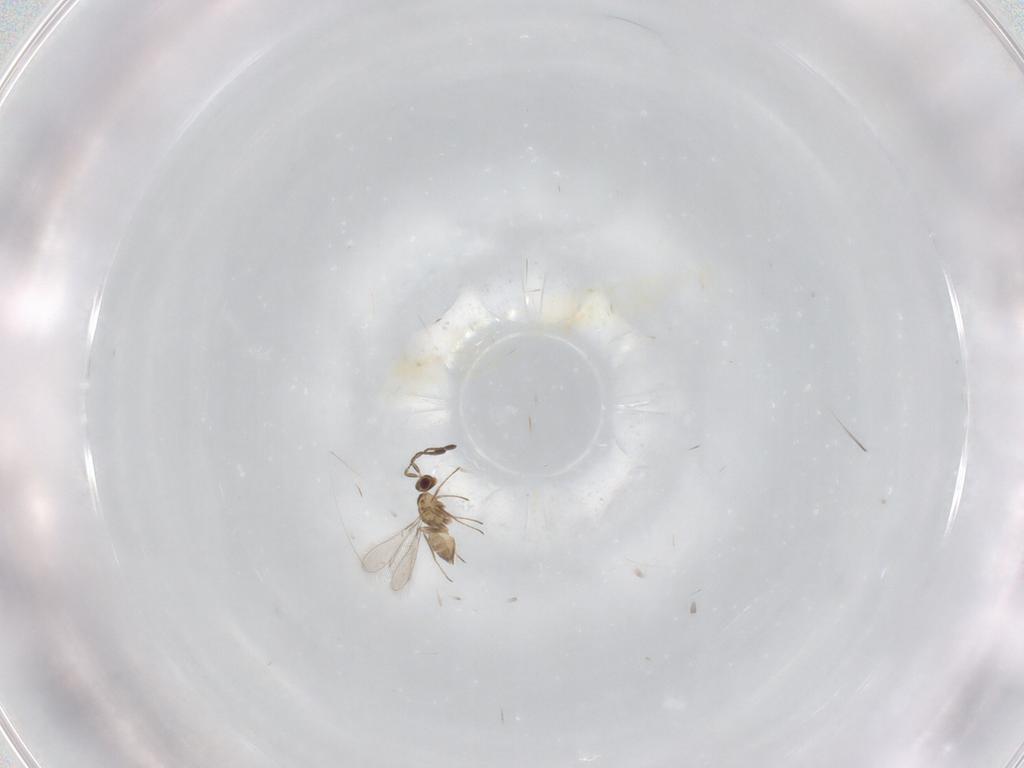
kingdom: Animalia
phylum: Arthropoda
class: Insecta
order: Hymenoptera
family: Mymaridae
